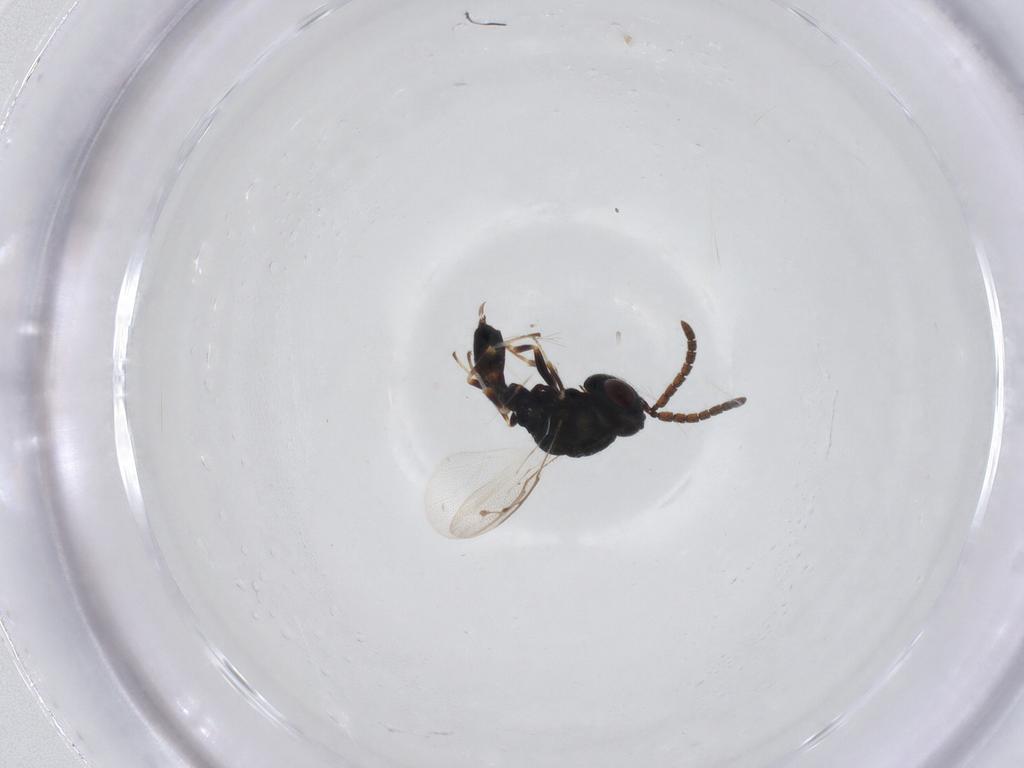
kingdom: Animalia
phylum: Arthropoda
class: Insecta
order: Hymenoptera
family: Pteromalidae
